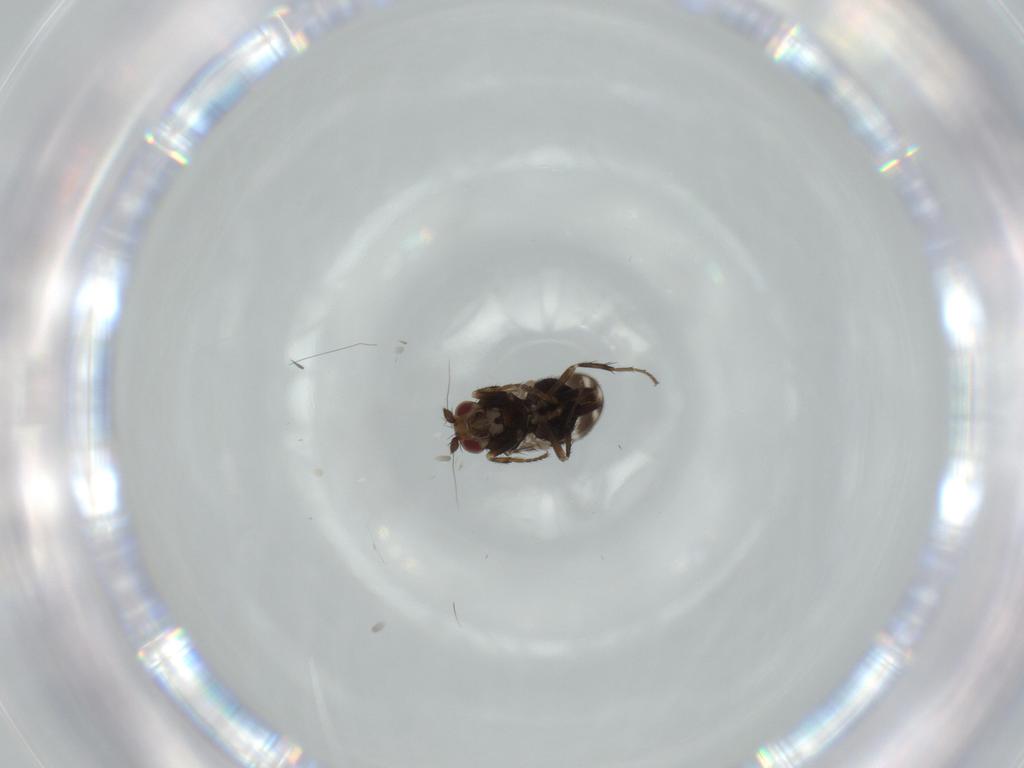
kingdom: Animalia
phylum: Arthropoda
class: Insecta
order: Diptera
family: Sphaeroceridae
